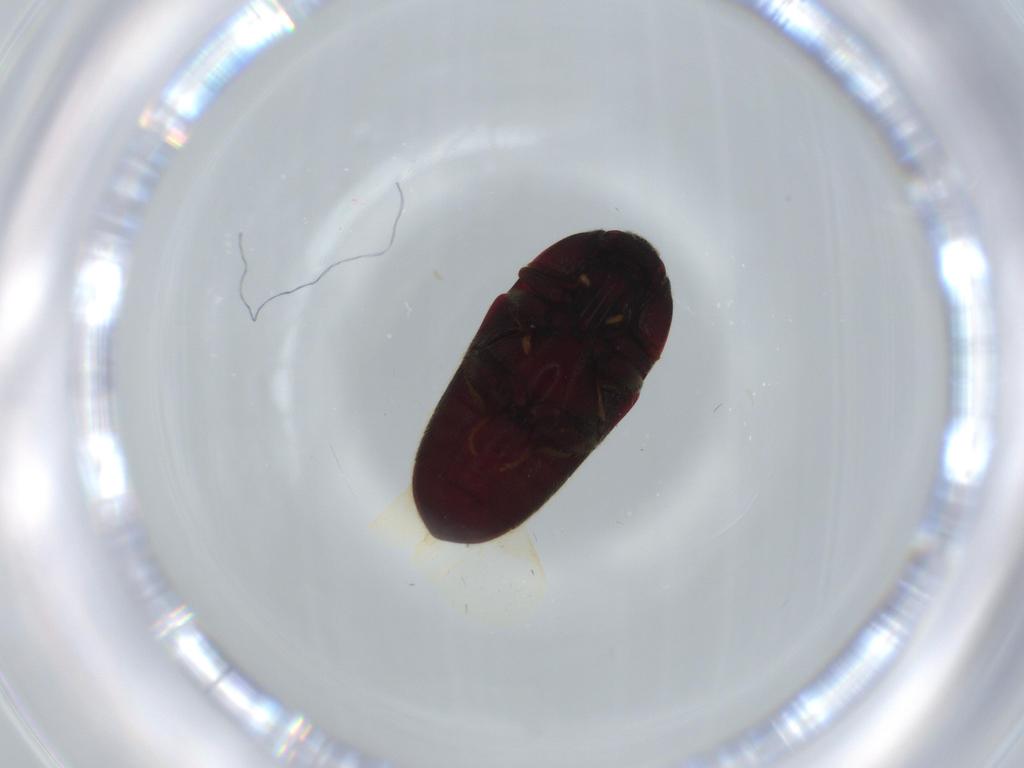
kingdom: Animalia
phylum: Arthropoda
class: Insecta
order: Coleoptera
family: Throscidae
